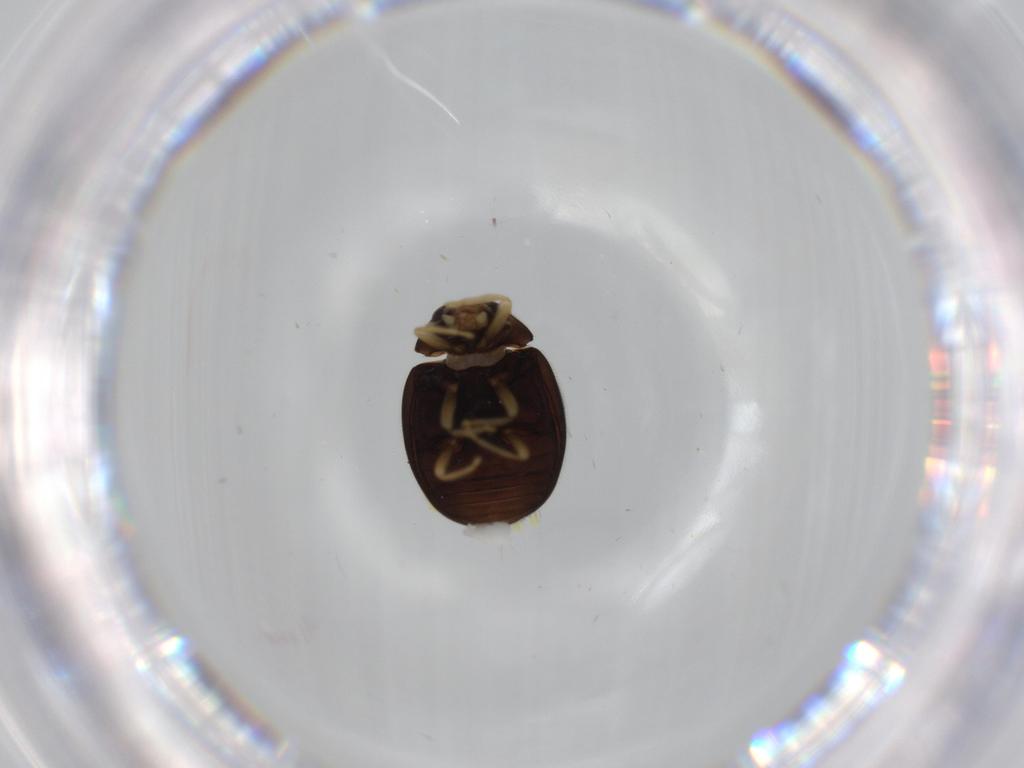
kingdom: Animalia
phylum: Arthropoda
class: Insecta
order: Coleoptera
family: Coccinellidae
